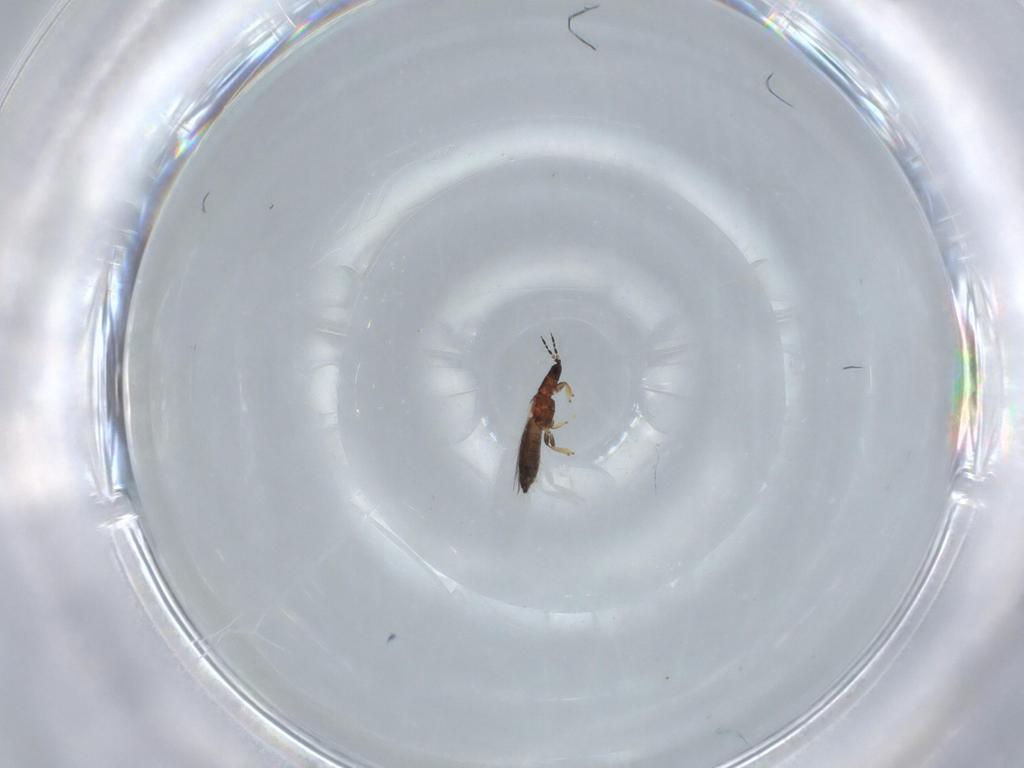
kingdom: Animalia
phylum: Arthropoda
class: Insecta
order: Thysanoptera
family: Thripidae
